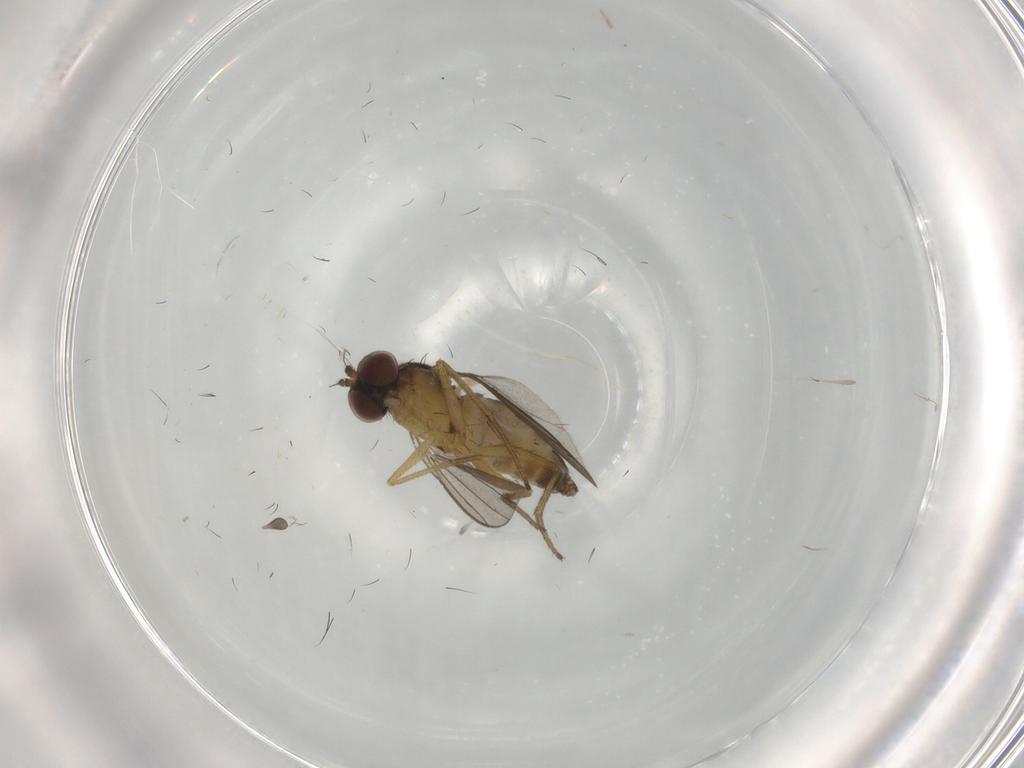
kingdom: Animalia
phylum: Arthropoda
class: Insecta
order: Diptera
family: Dolichopodidae
